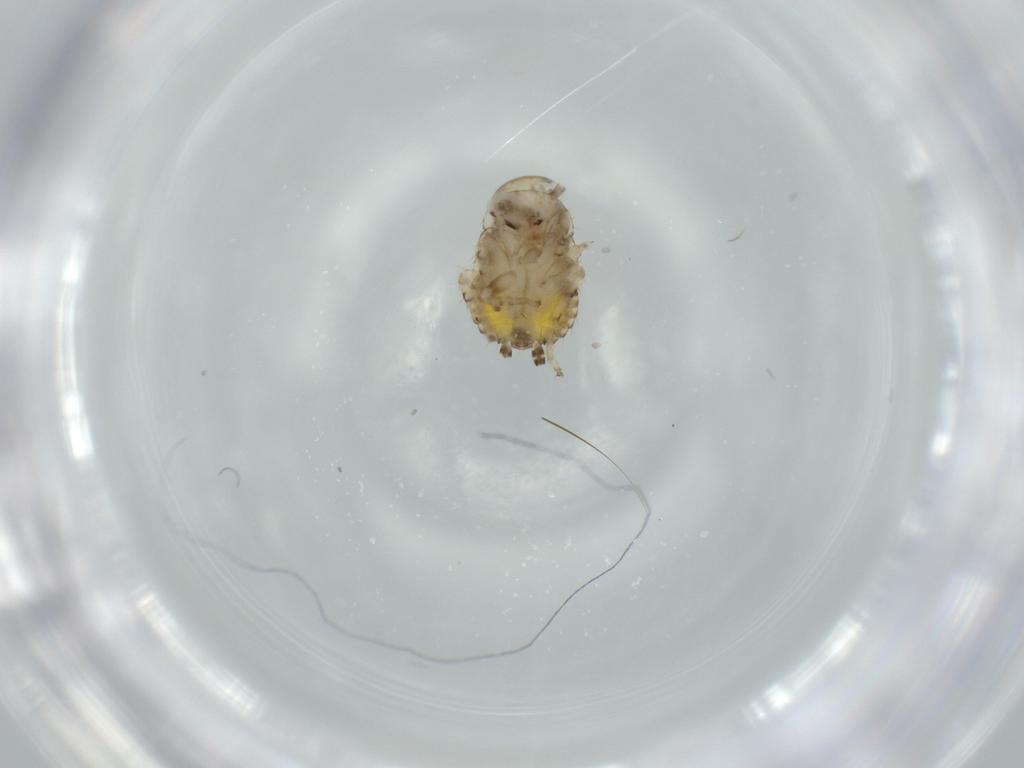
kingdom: Animalia
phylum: Arthropoda
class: Insecta
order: Blattodea
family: Ectobiidae
